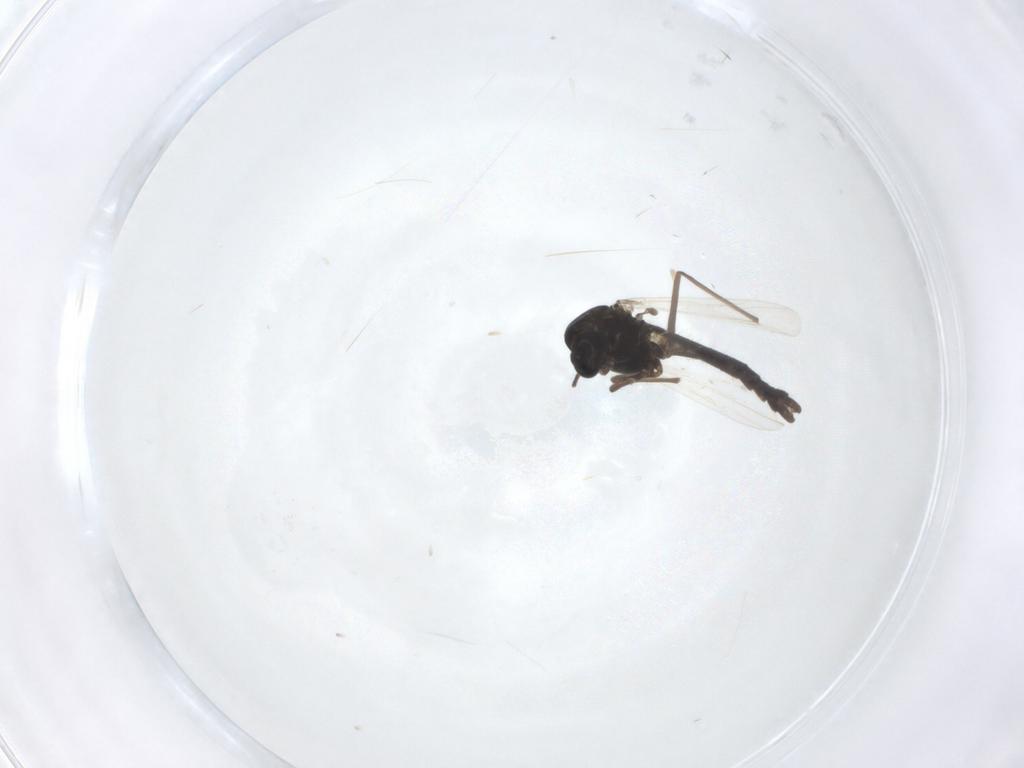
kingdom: Animalia
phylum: Arthropoda
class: Insecta
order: Diptera
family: Chironomidae
